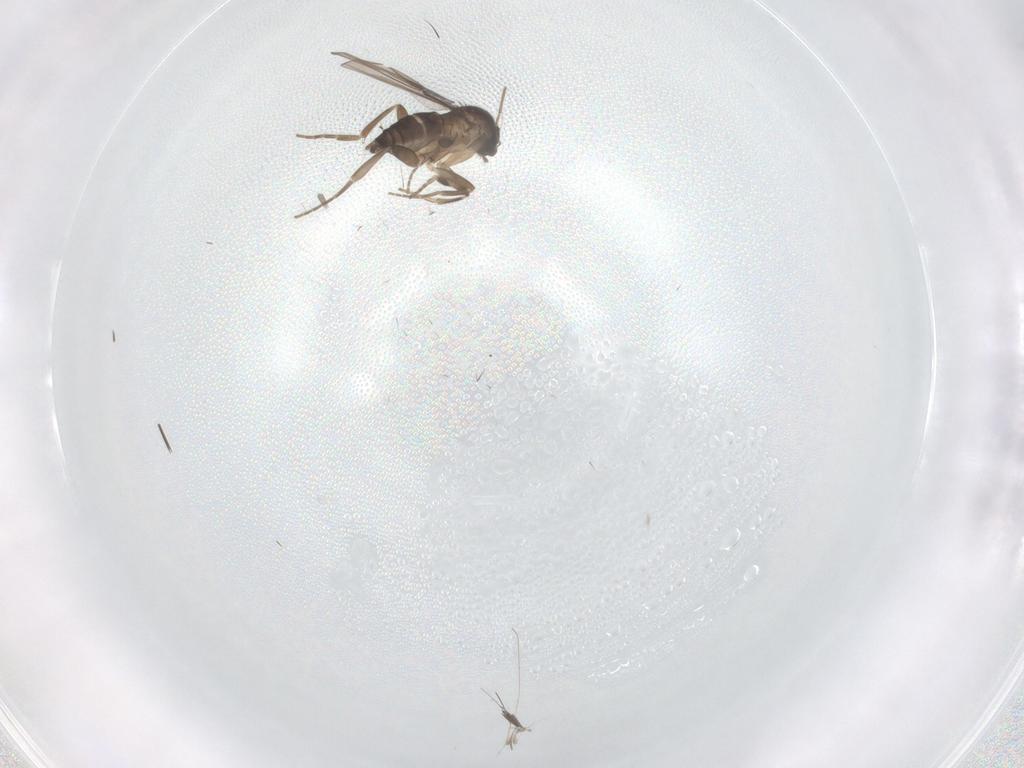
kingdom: Animalia
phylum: Arthropoda
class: Insecta
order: Diptera
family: Cecidomyiidae
